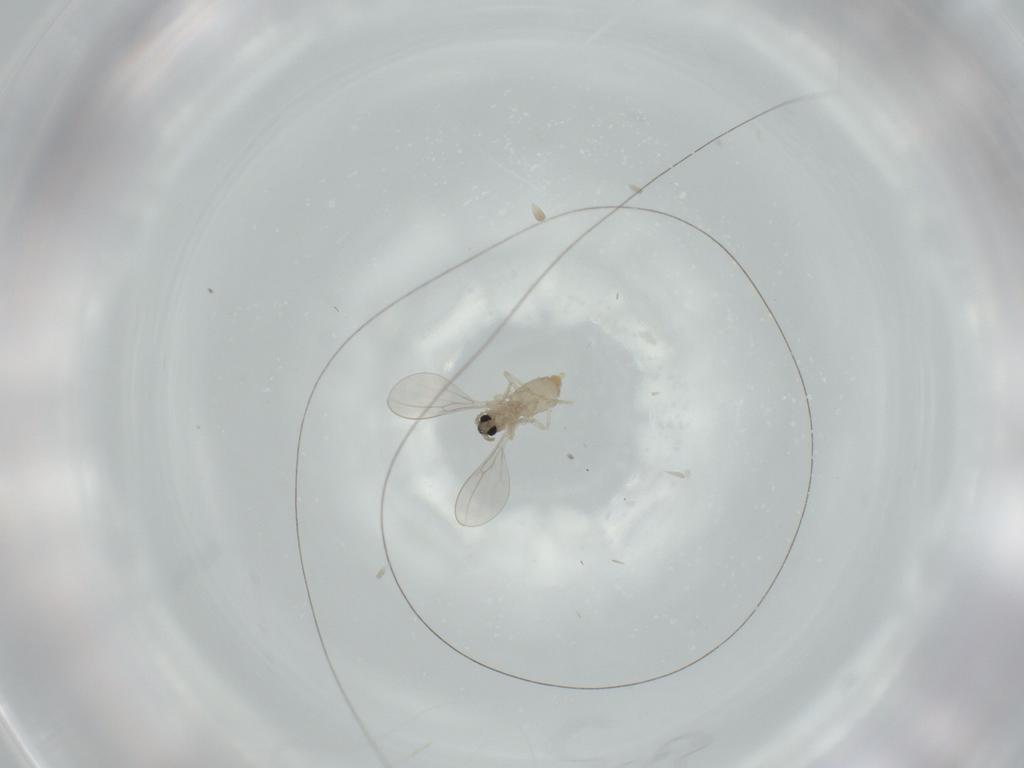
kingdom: Animalia
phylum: Arthropoda
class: Insecta
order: Diptera
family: Cecidomyiidae
